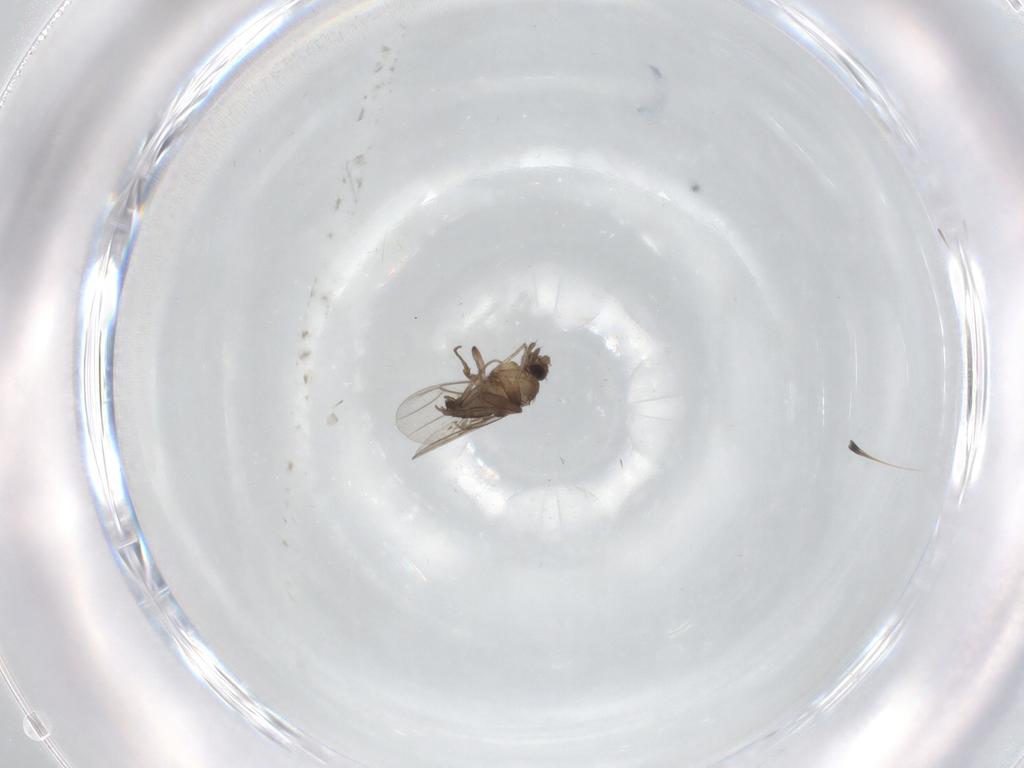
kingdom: Animalia
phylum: Arthropoda
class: Insecta
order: Diptera
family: Phoridae
